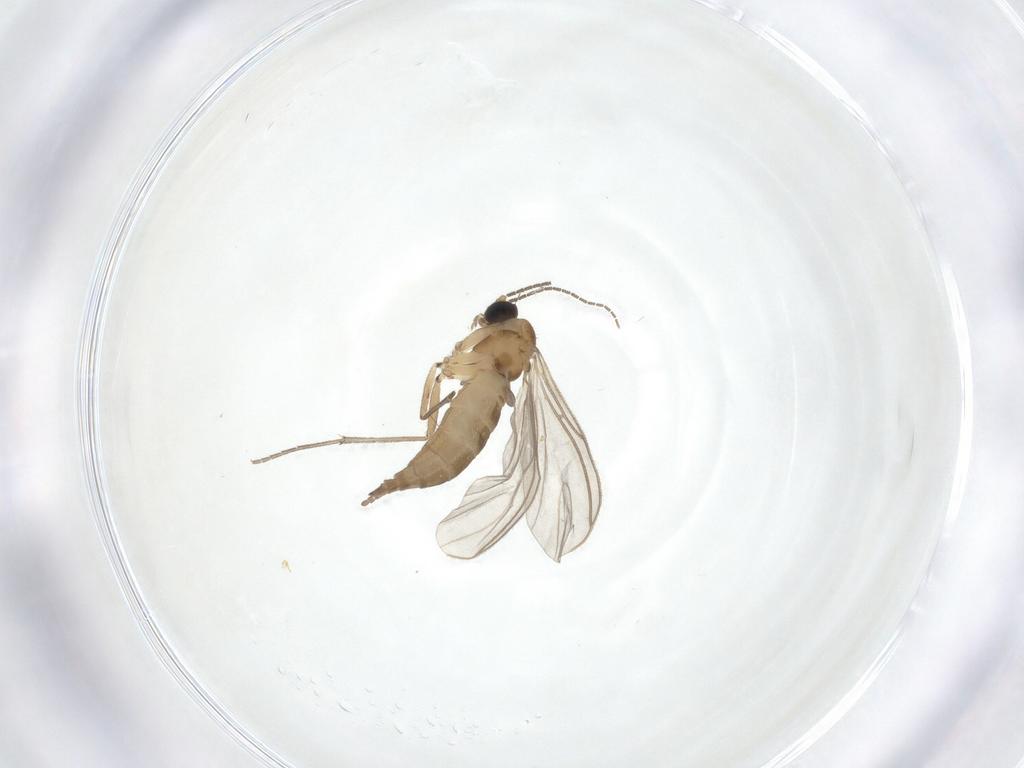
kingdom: Animalia
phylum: Arthropoda
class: Insecta
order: Diptera
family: Sciaridae
